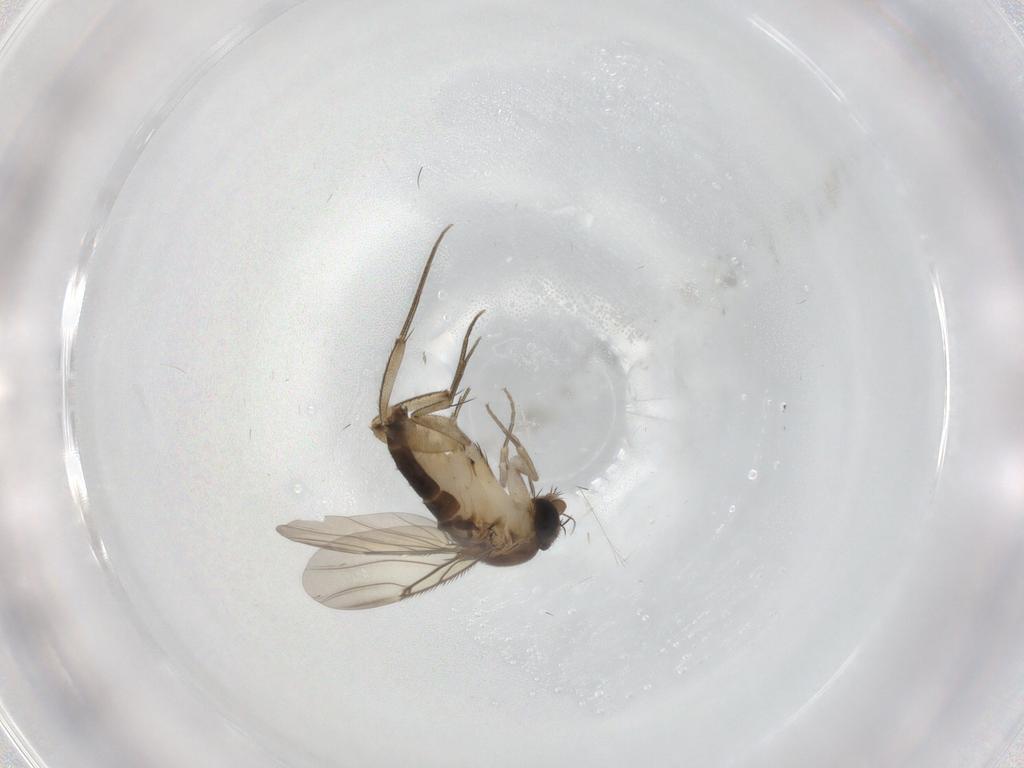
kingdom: Animalia
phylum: Arthropoda
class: Insecta
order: Diptera
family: Phoridae
